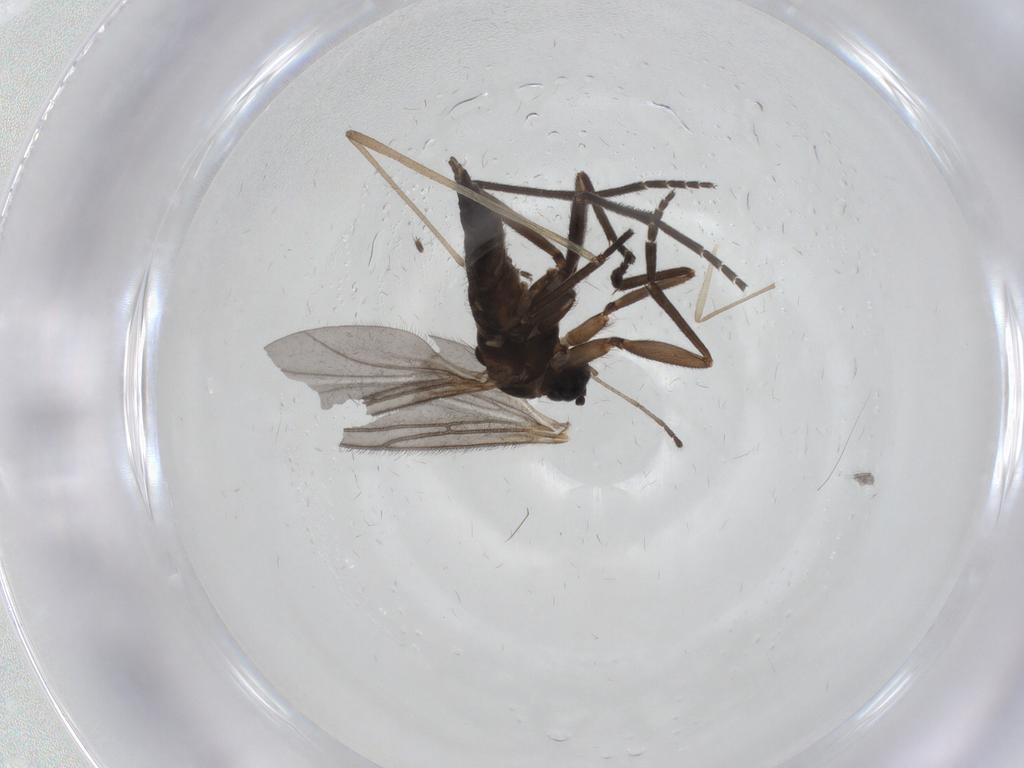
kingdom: Animalia
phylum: Arthropoda
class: Insecta
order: Diptera
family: Sciaridae
